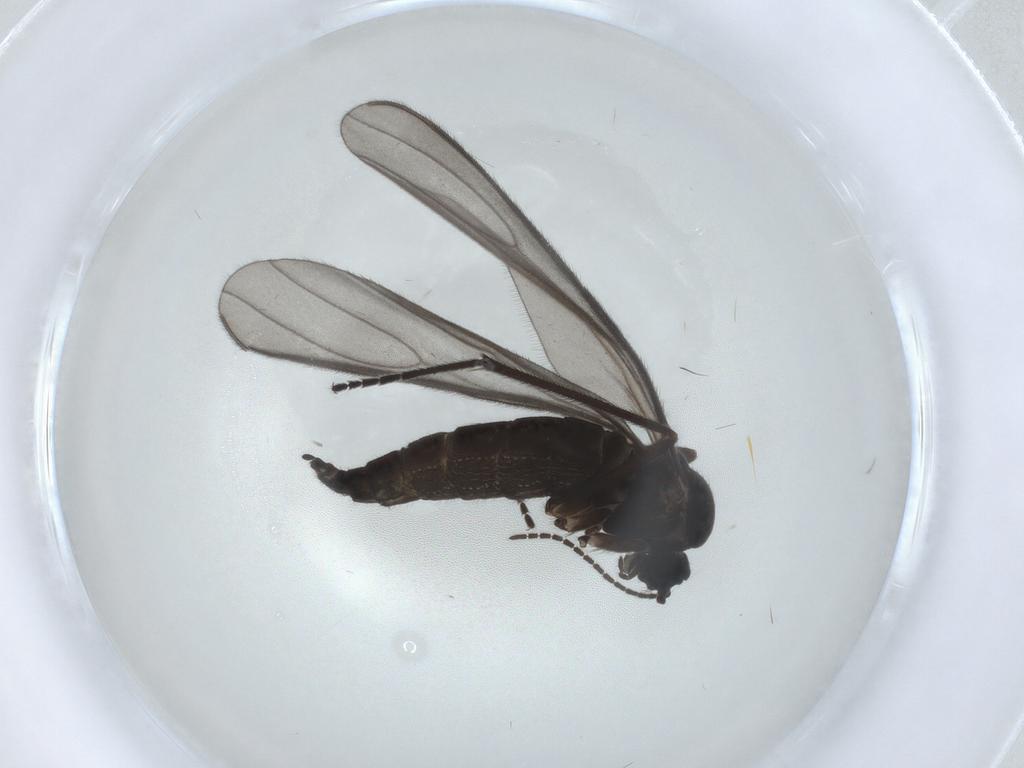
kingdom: Animalia
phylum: Arthropoda
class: Insecta
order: Diptera
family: Sciaridae
